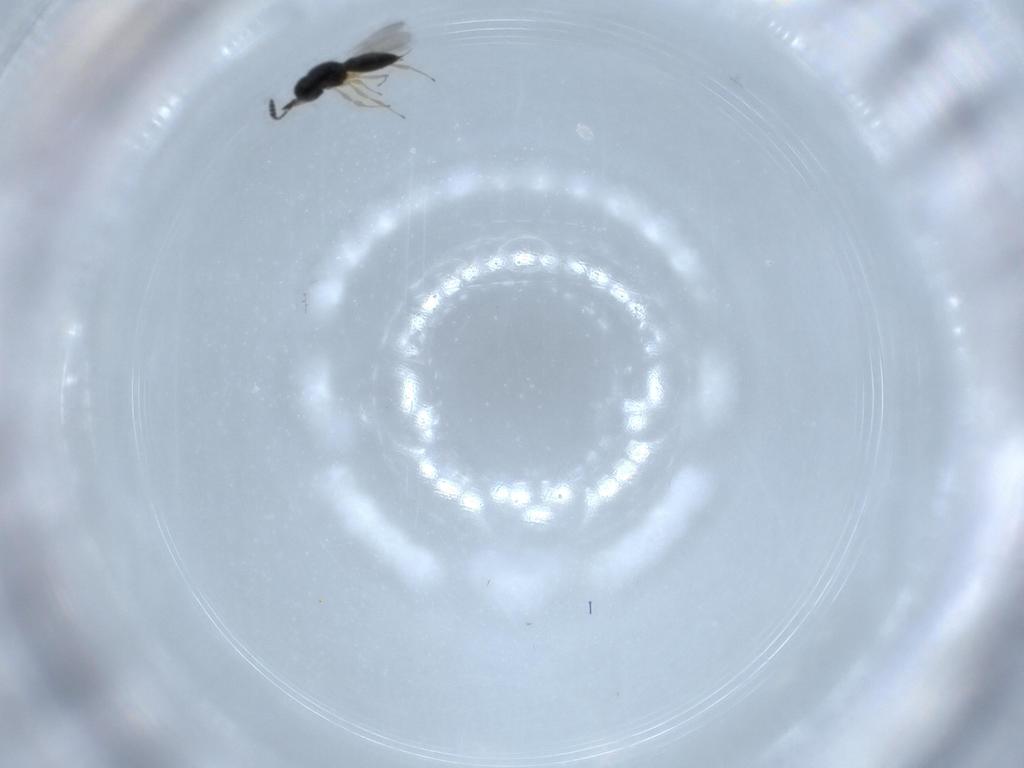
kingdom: Animalia
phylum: Arthropoda
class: Insecta
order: Hymenoptera
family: Scelionidae
